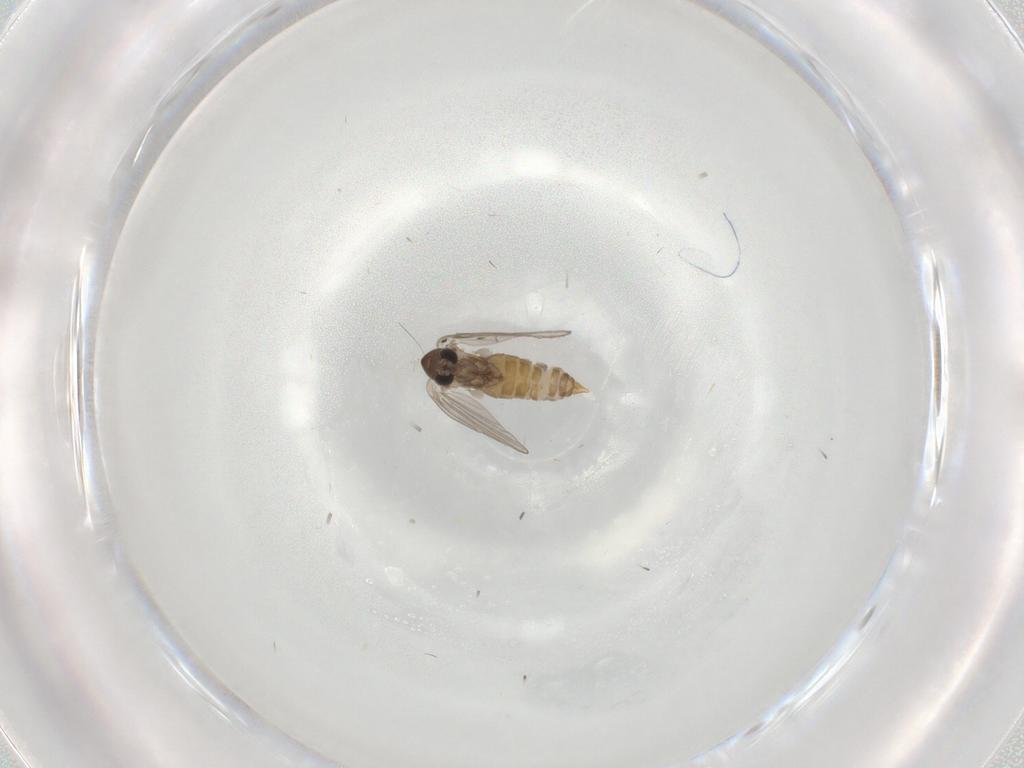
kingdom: Animalia
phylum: Arthropoda
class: Insecta
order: Diptera
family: Psychodidae
